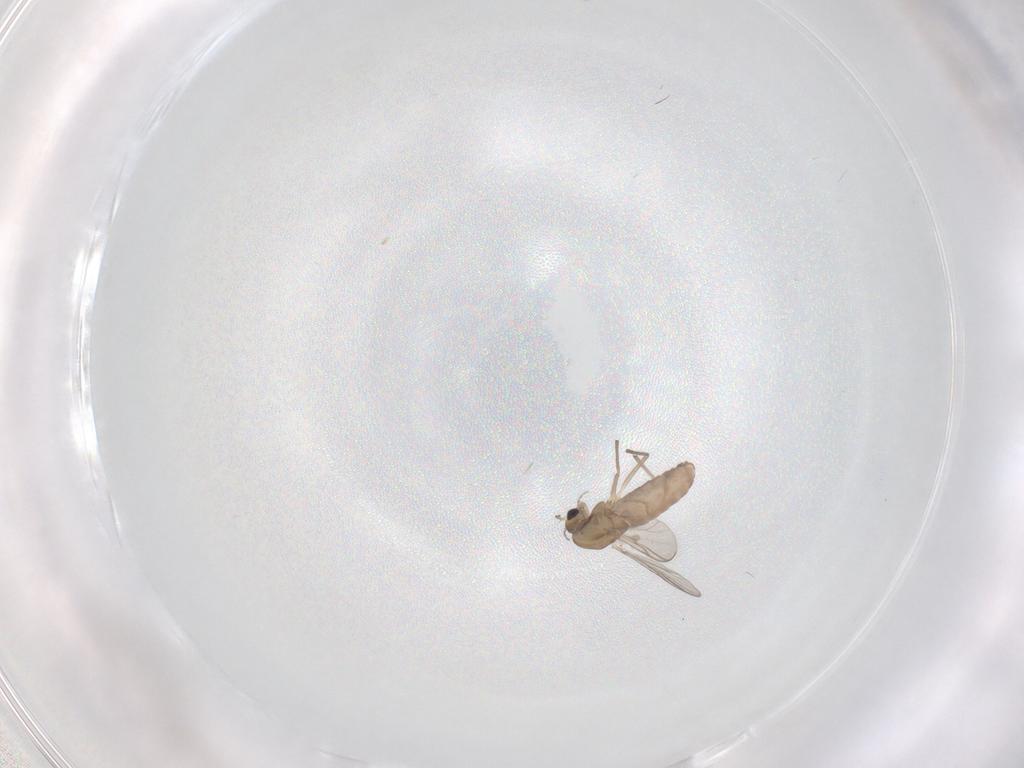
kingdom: Animalia
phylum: Arthropoda
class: Insecta
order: Diptera
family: Chironomidae
